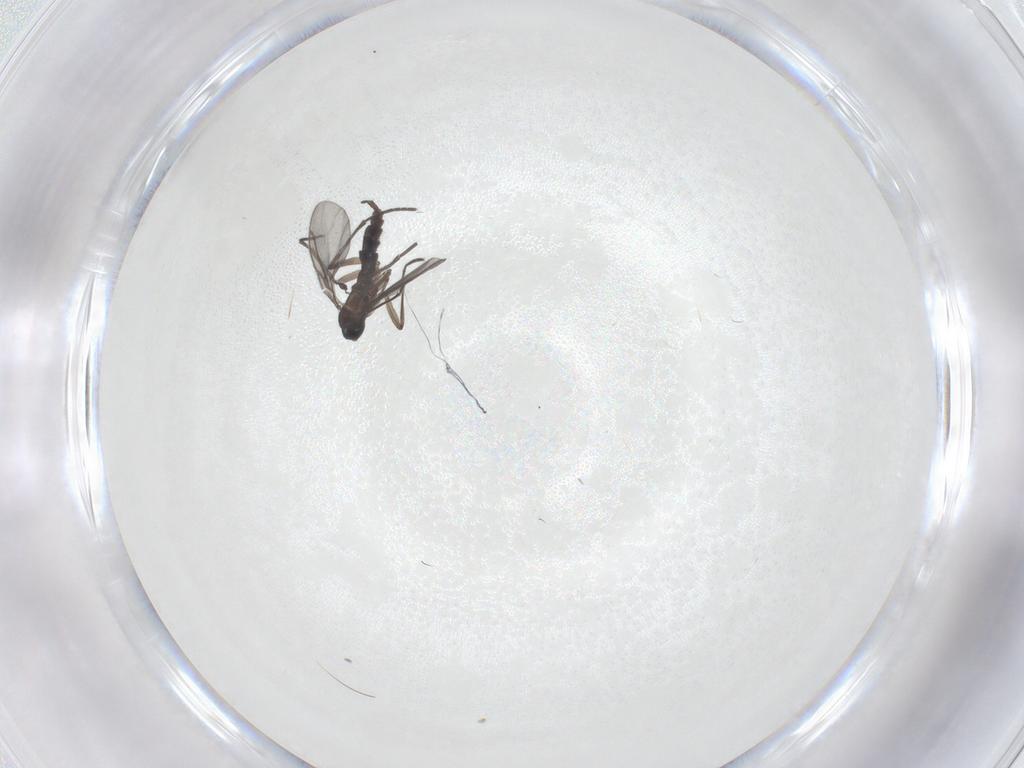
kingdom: Animalia
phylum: Arthropoda
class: Insecta
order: Diptera
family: Sciaridae
